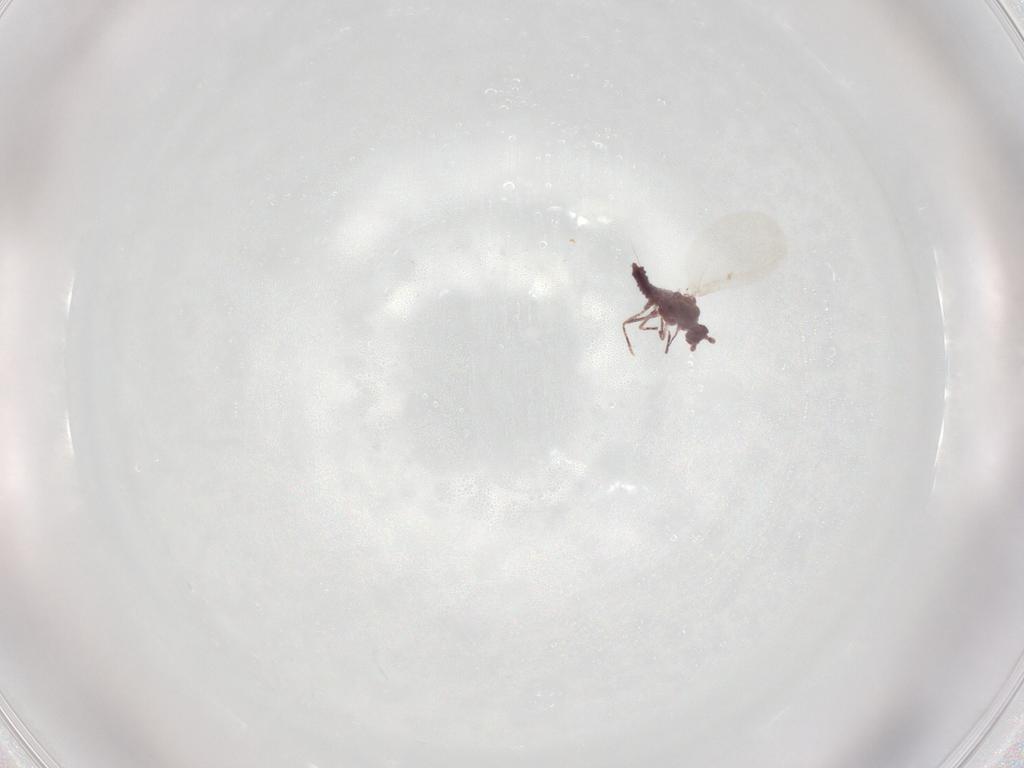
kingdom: Animalia
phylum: Arthropoda
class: Insecta
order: Diptera
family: Cecidomyiidae
